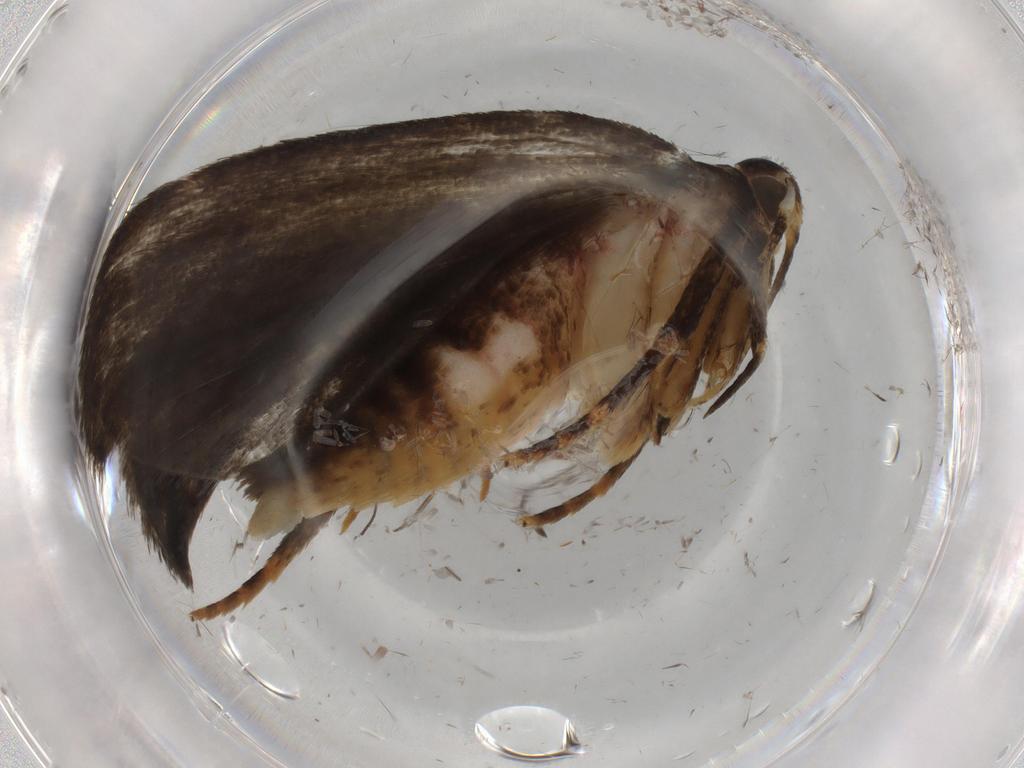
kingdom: Animalia
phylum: Arthropoda
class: Insecta
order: Lepidoptera
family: Autostichidae
